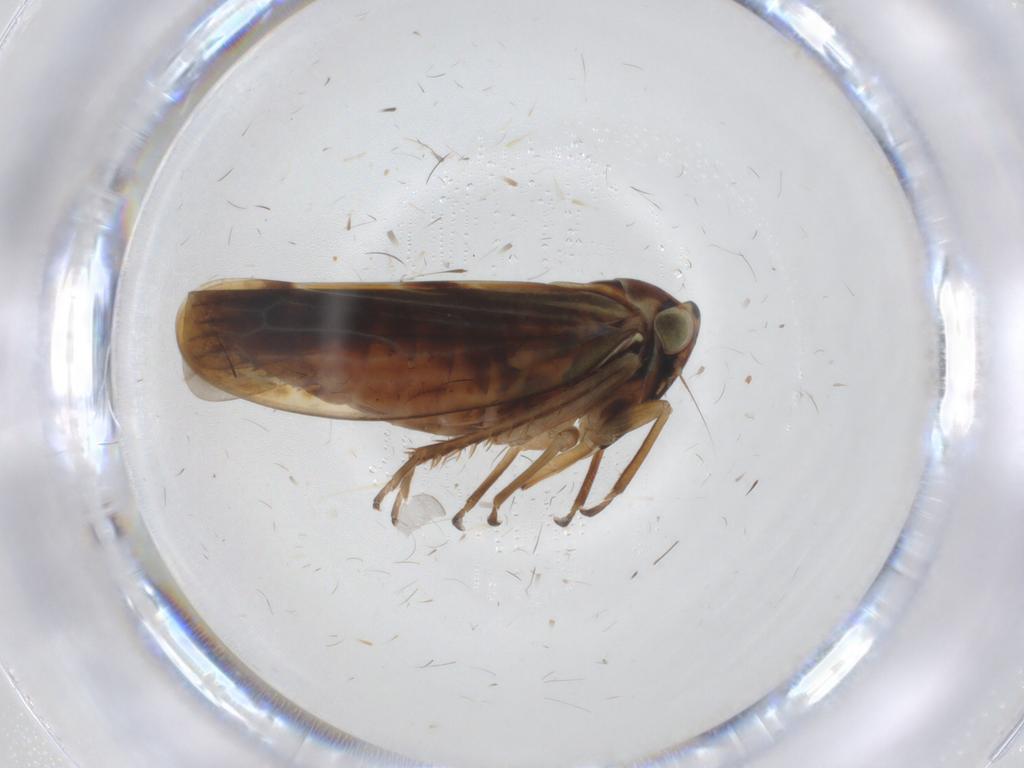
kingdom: Animalia
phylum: Arthropoda
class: Insecta
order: Hemiptera
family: Cicadellidae
